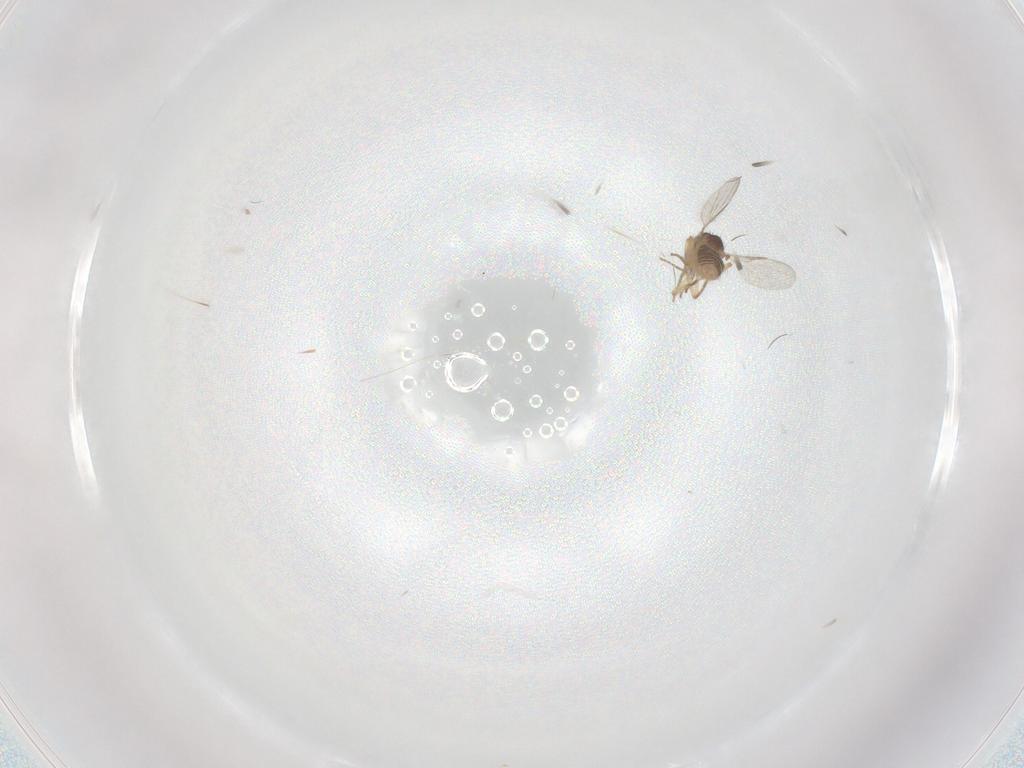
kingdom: Animalia
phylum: Arthropoda
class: Insecta
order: Diptera
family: Ceratopogonidae
